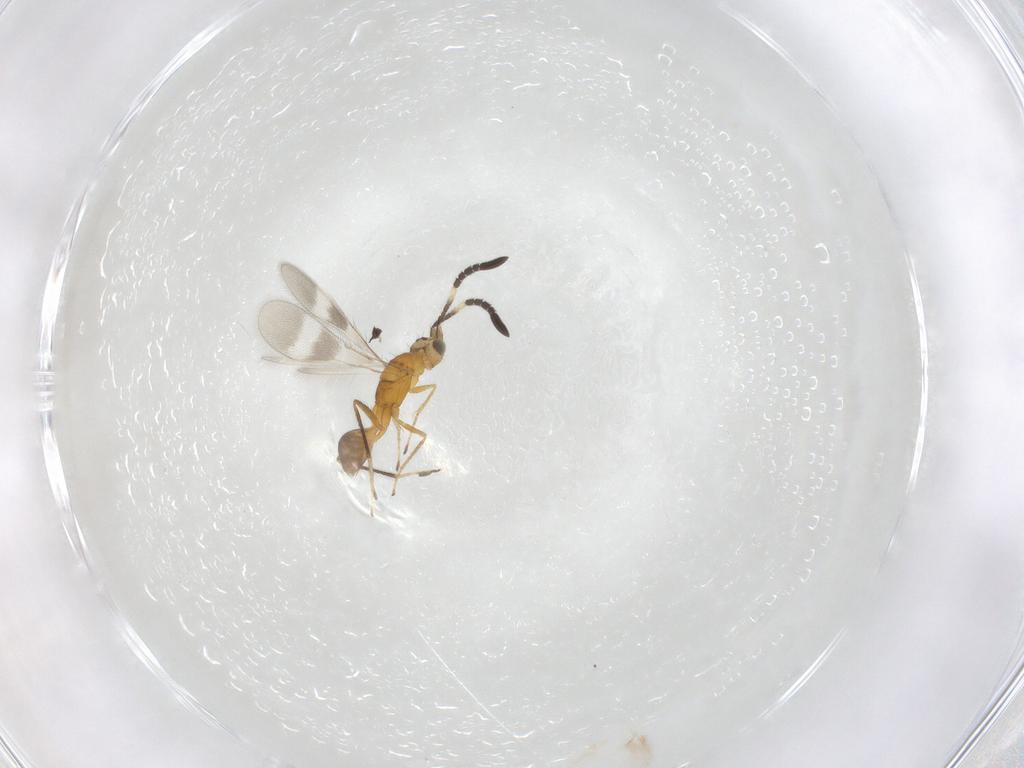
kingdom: Animalia
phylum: Arthropoda
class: Insecta
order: Hymenoptera
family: Mymaridae
